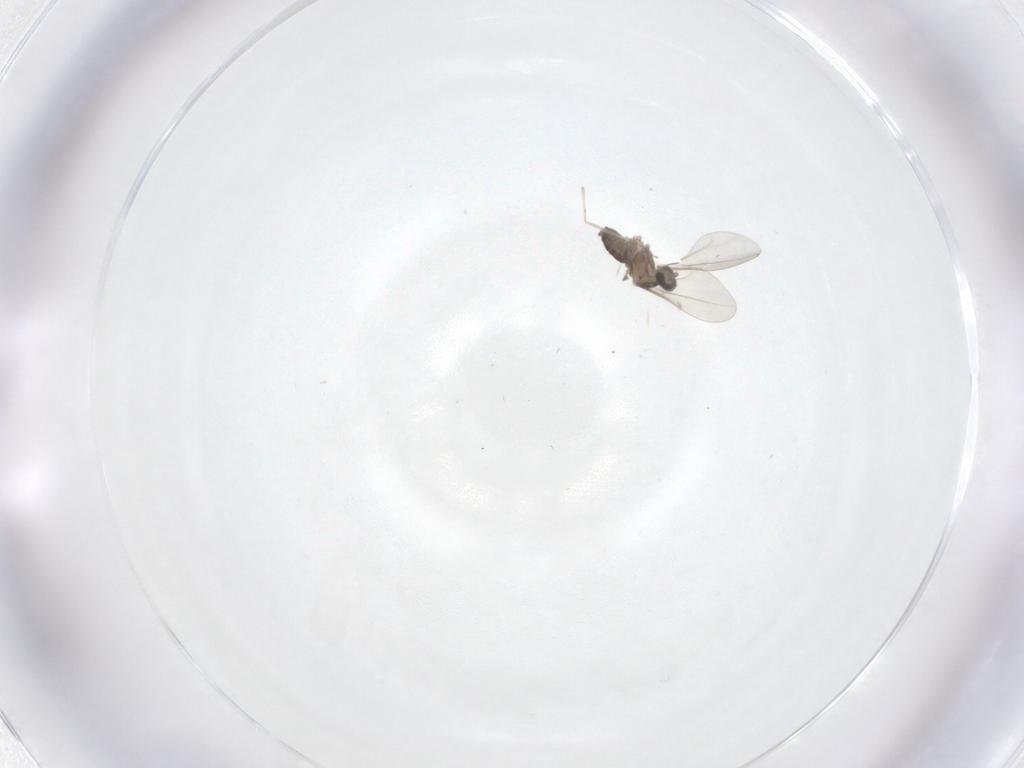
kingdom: Animalia
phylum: Arthropoda
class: Insecta
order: Diptera
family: Cecidomyiidae
